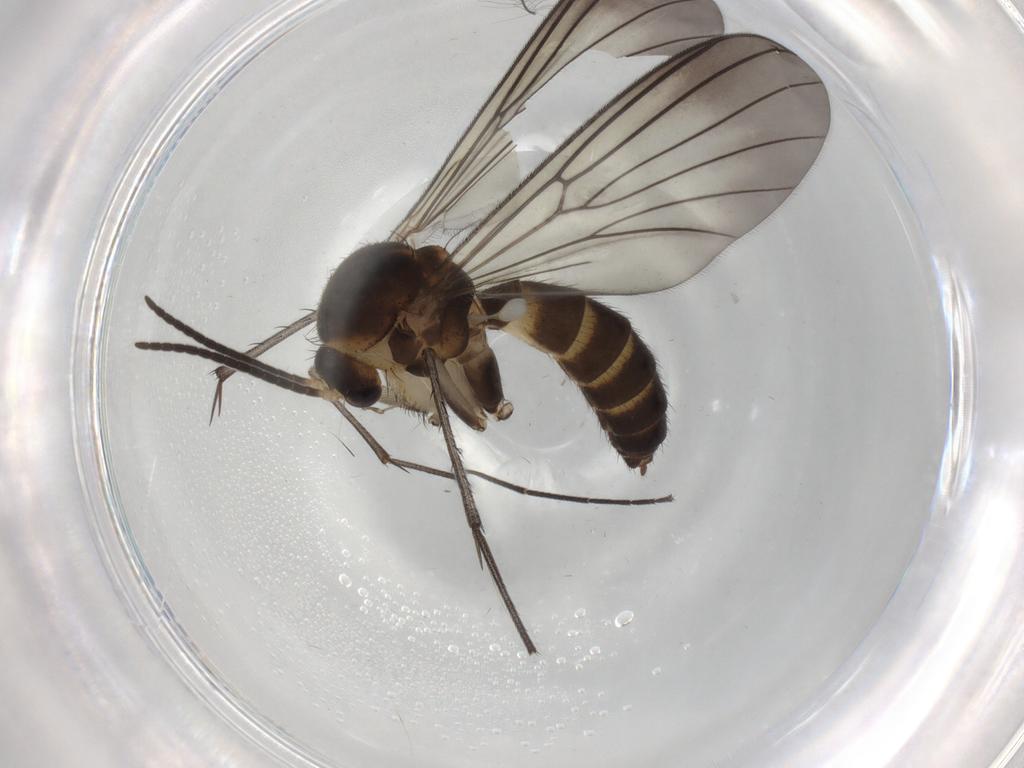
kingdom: Animalia
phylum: Arthropoda
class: Insecta
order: Diptera
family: Mycetophilidae
